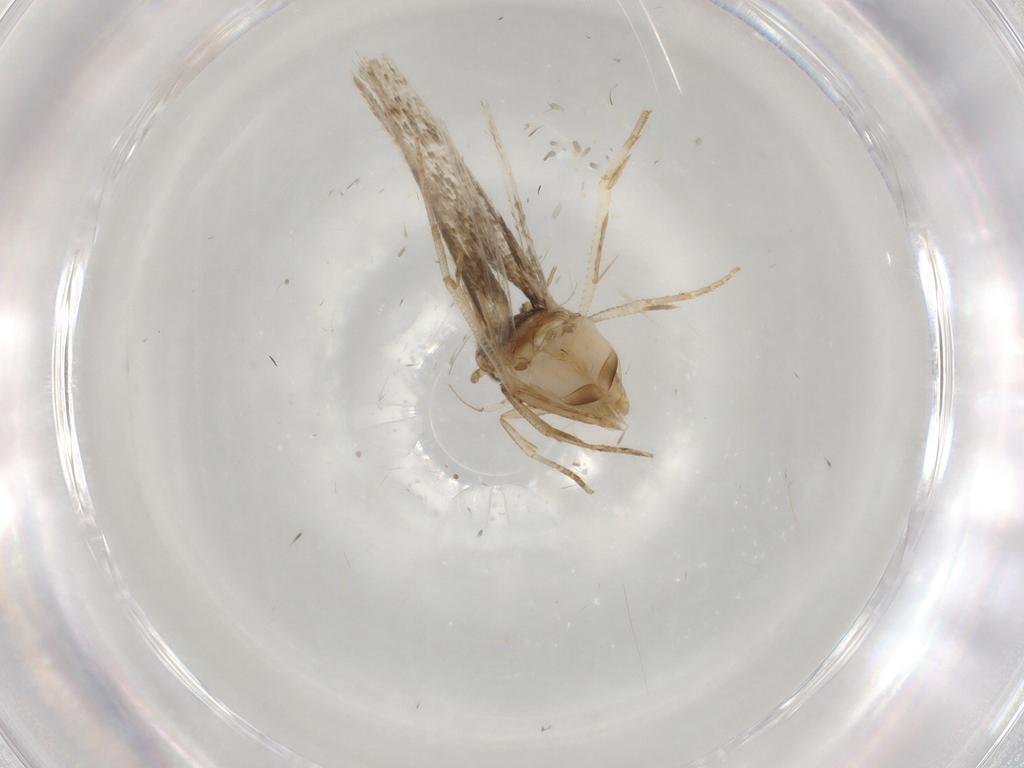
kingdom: Animalia
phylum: Arthropoda
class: Insecta
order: Lepidoptera
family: Cosmopterigidae
